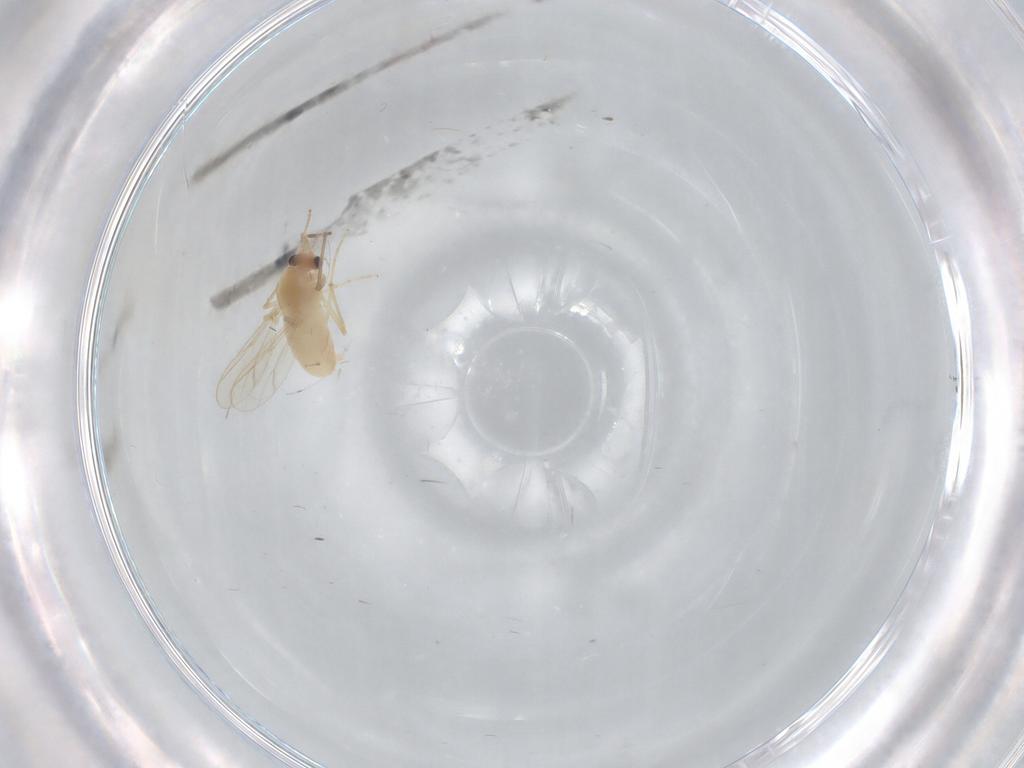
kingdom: Animalia
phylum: Arthropoda
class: Insecta
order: Diptera
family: Chironomidae
